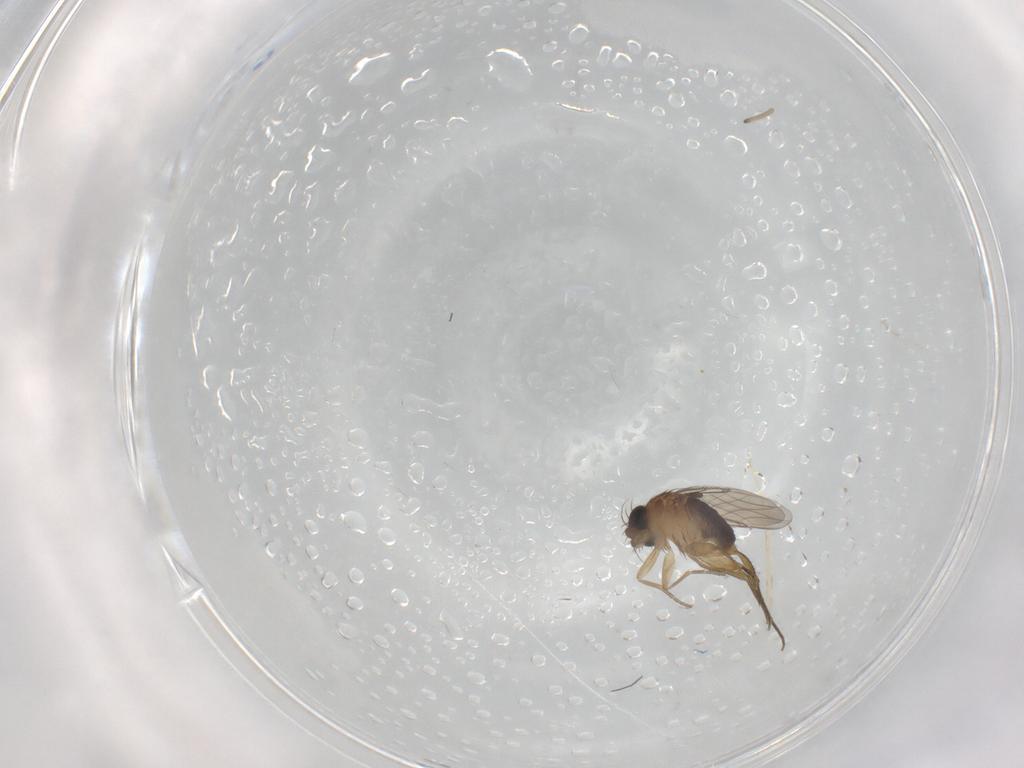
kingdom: Animalia
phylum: Arthropoda
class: Insecta
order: Diptera
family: Phoridae
